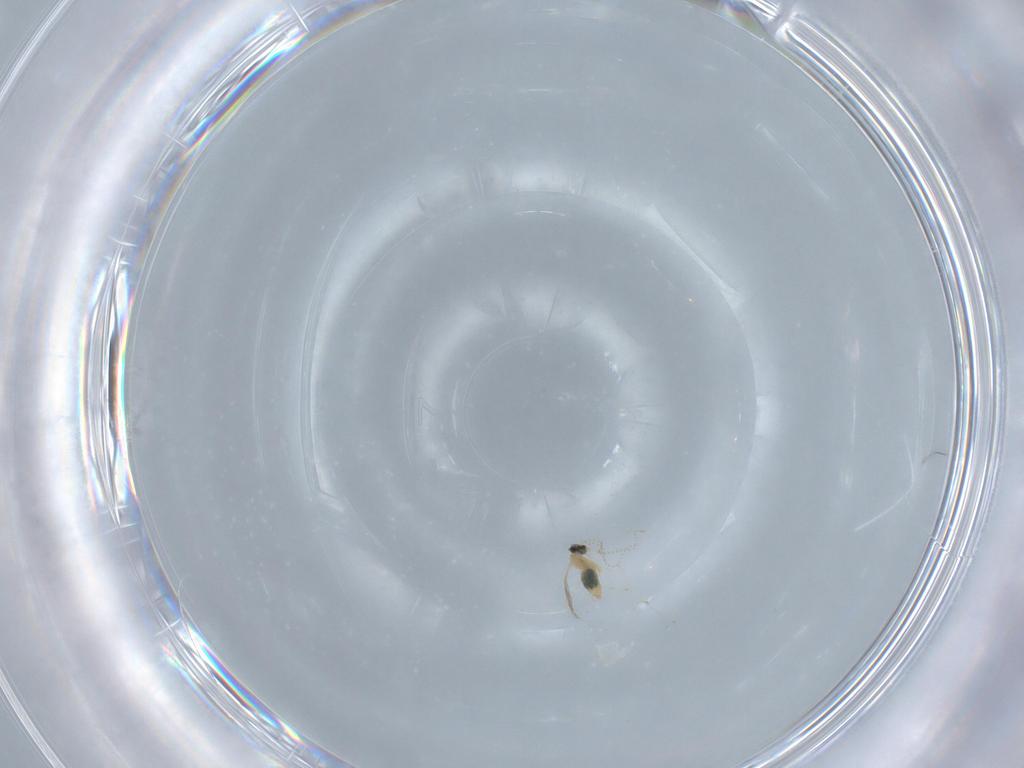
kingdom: Animalia
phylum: Arthropoda
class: Insecta
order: Diptera
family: Cecidomyiidae
